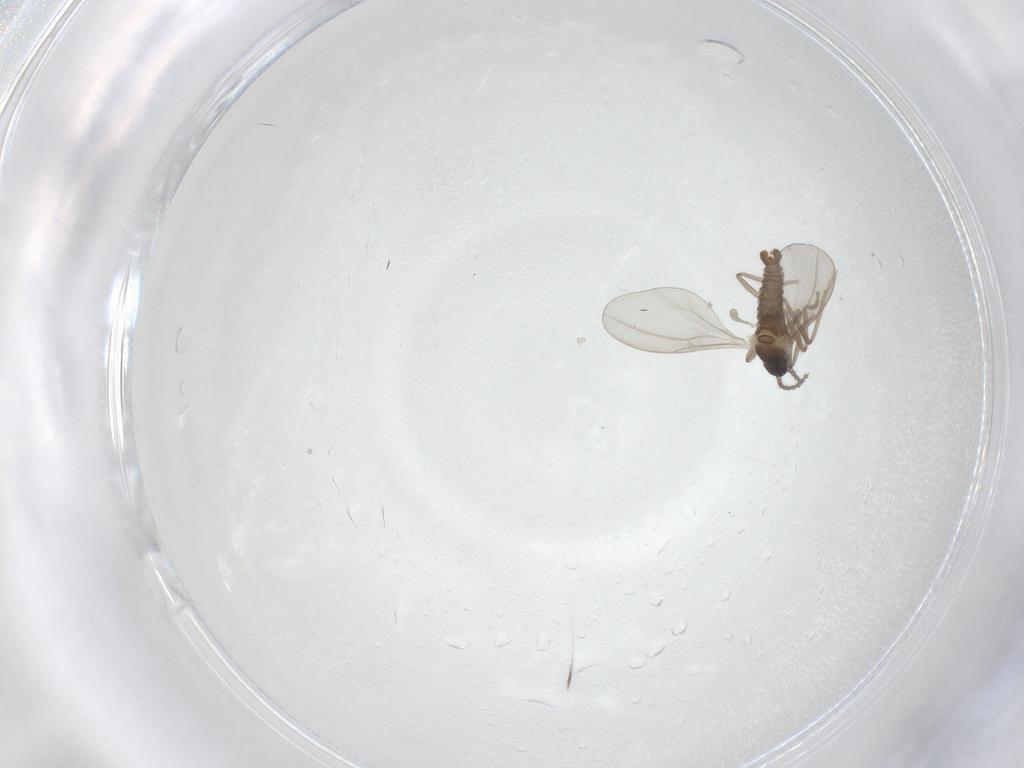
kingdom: Animalia
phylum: Arthropoda
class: Insecta
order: Diptera
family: Cecidomyiidae
